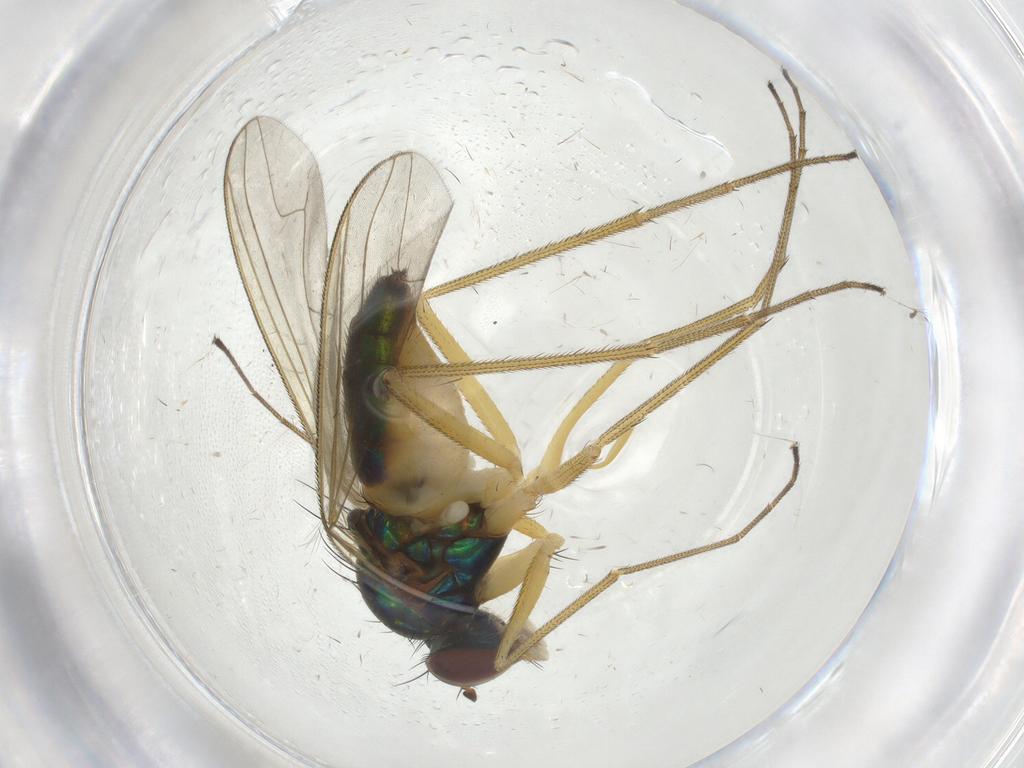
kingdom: Animalia
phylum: Arthropoda
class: Insecta
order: Diptera
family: Dolichopodidae
